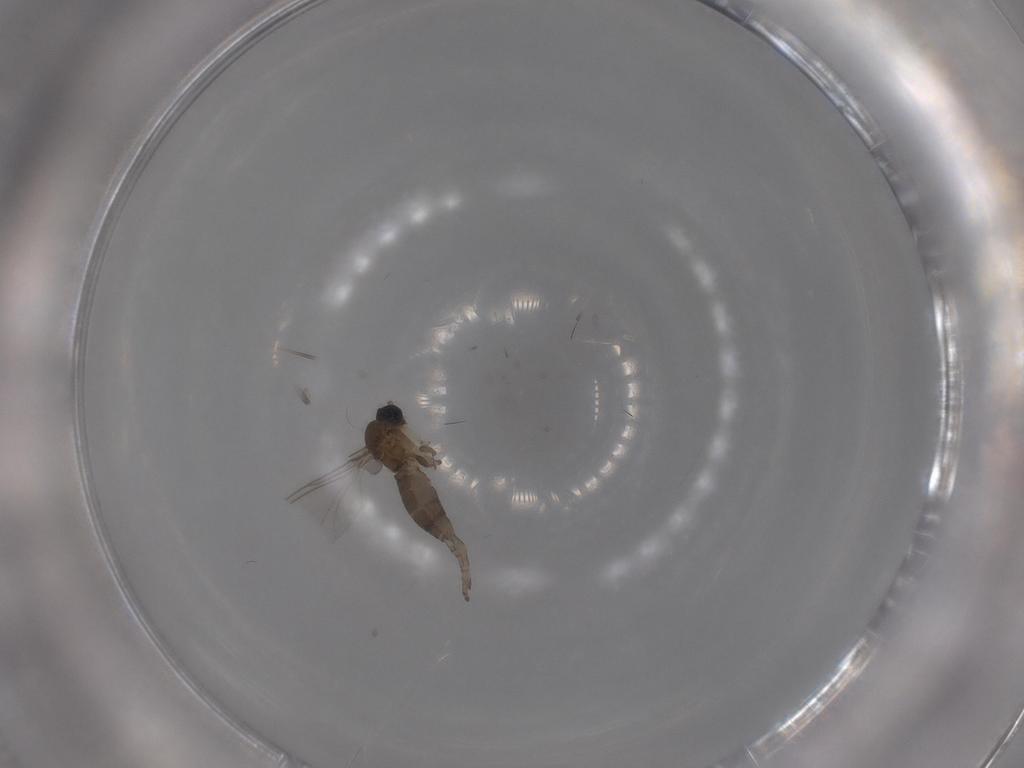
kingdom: Animalia
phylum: Arthropoda
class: Insecta
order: Diptera
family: Sciaridae
